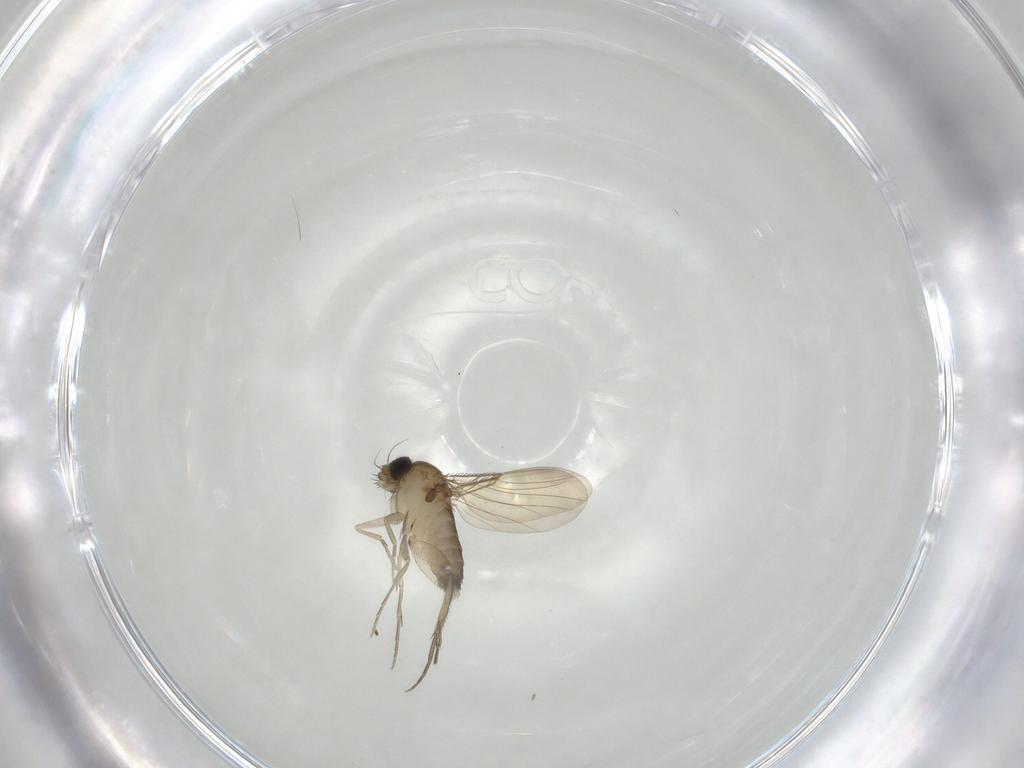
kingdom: Animalia
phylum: Arthropoda
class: Insecta
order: Diptera
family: Phoridae
